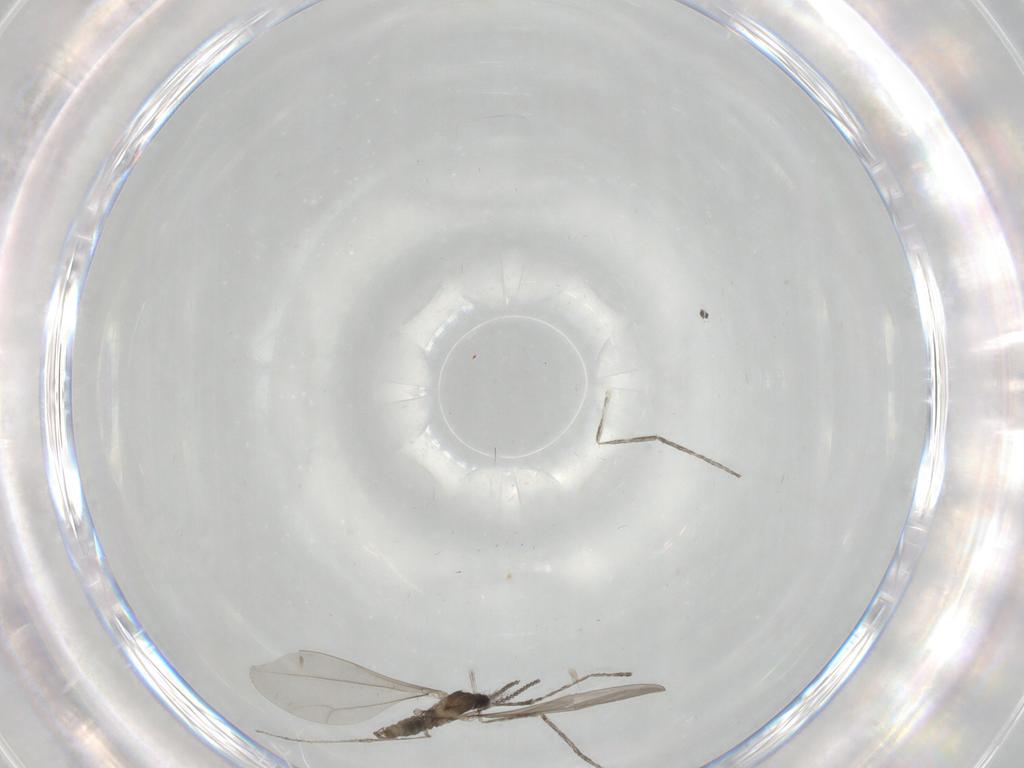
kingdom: Animalia
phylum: Arthropoda
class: Insecta
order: Diptera
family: Cecidomyiidae
